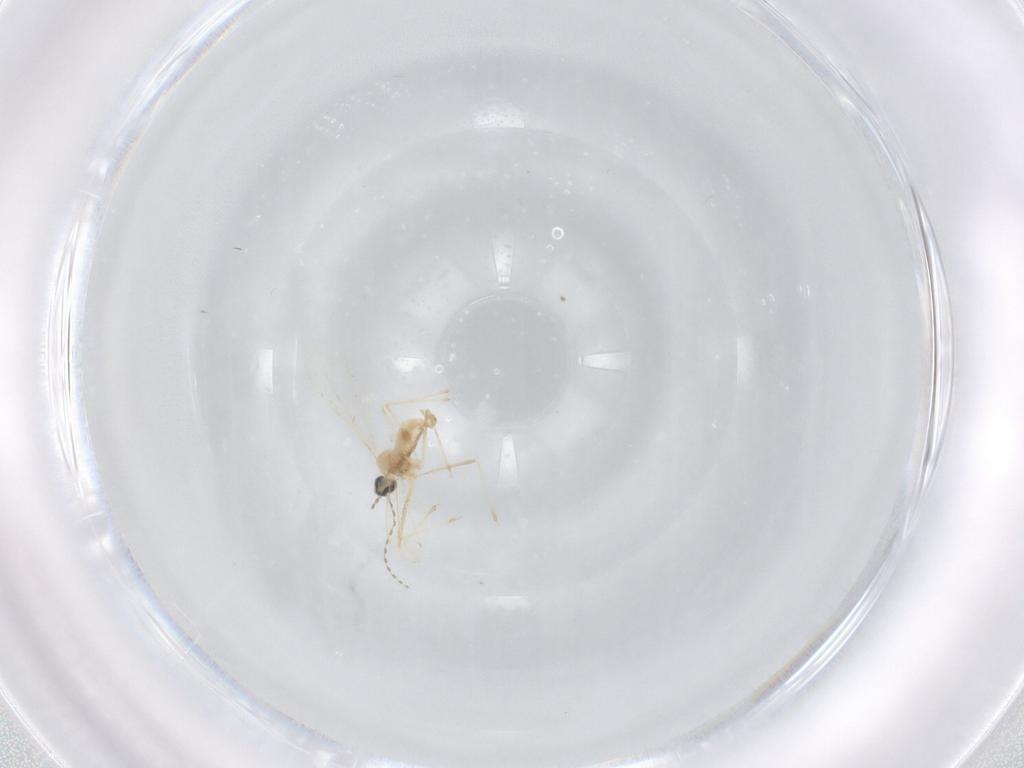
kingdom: Animalia
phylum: Arthropoda
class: Insecta
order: Diptera
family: Cecidomyiidae
